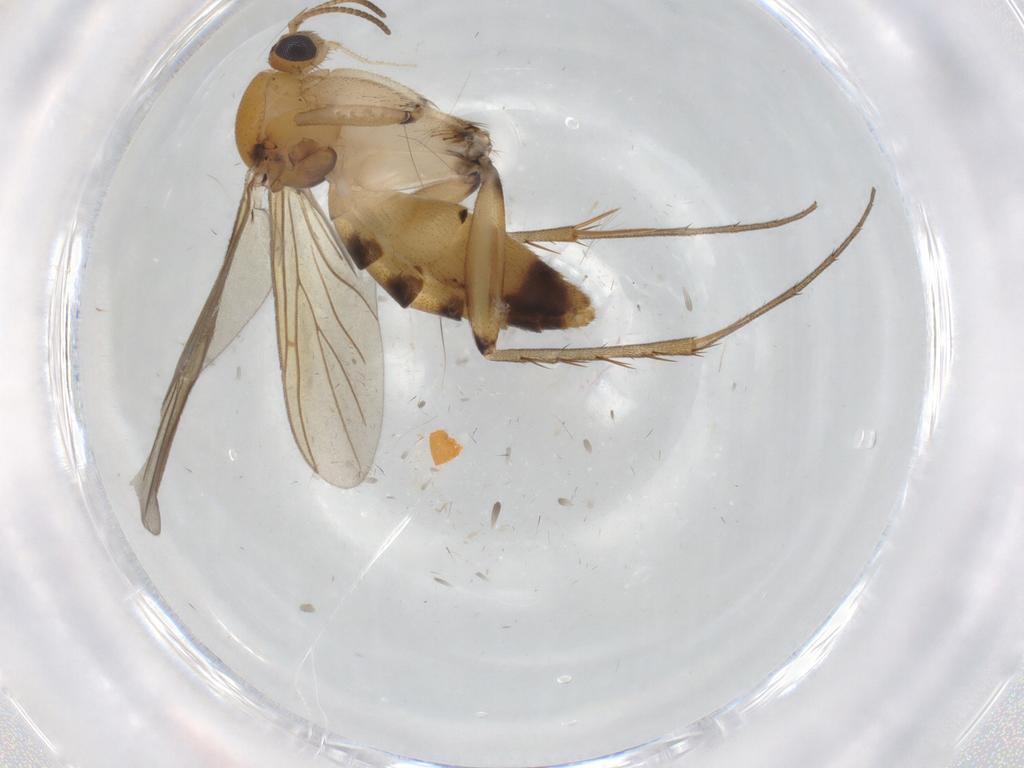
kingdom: Animalia
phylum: Arthropoda
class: Insecta
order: Diptera
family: Mycetophilidae
